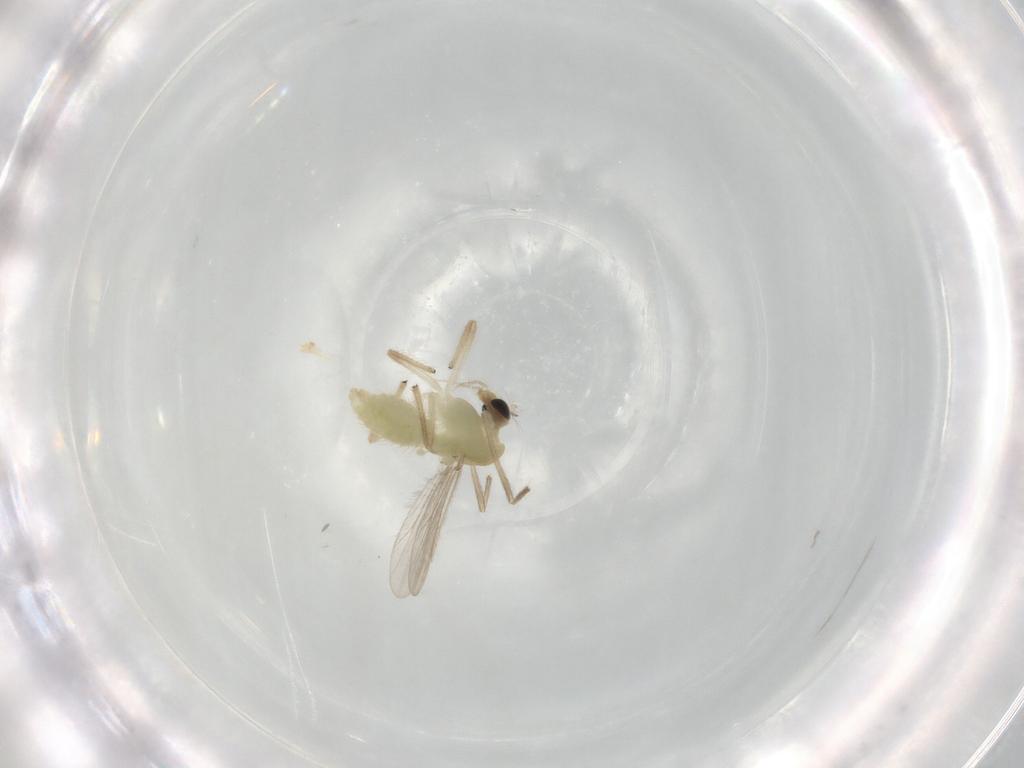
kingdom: Animalia
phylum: Arthropoda
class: Insecta
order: Diptera
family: Chironomidae
